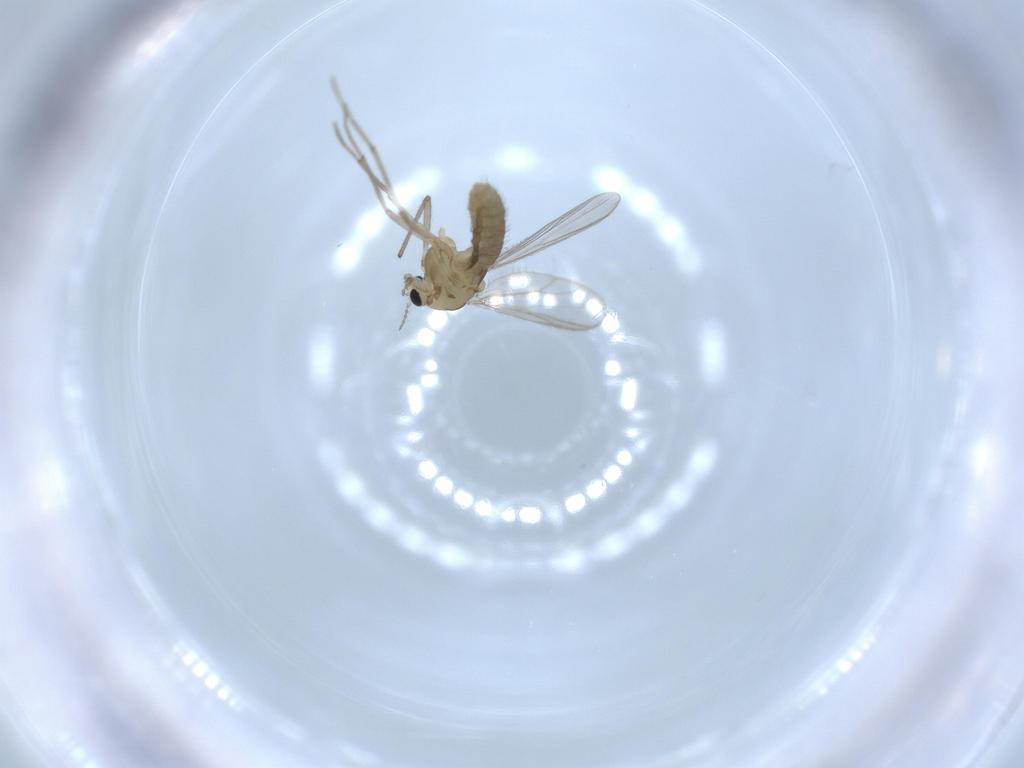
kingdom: Animalia
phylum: Arthropoda
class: Insecta
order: Diptera
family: Chironomidae
